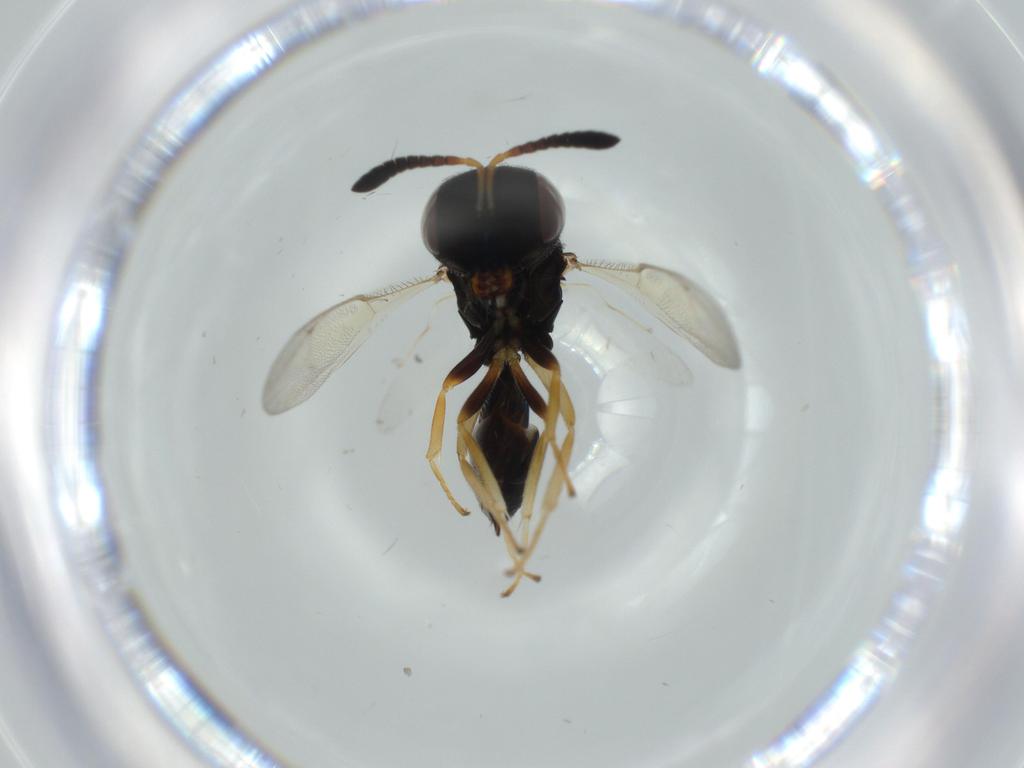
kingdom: Animalia
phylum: Arthropoda
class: Insecta
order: Hymenoptera
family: Pteromalidae
